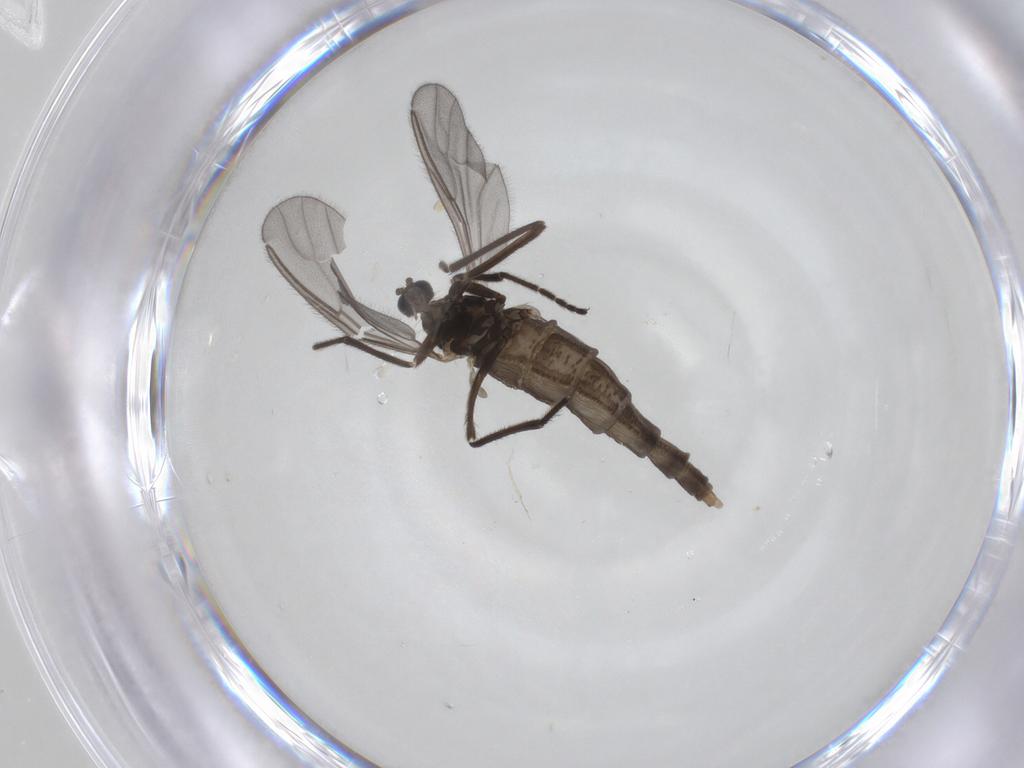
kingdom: Animalia
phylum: Arthropoda
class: Insecta
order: Diptera
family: Cecidomyiidae
